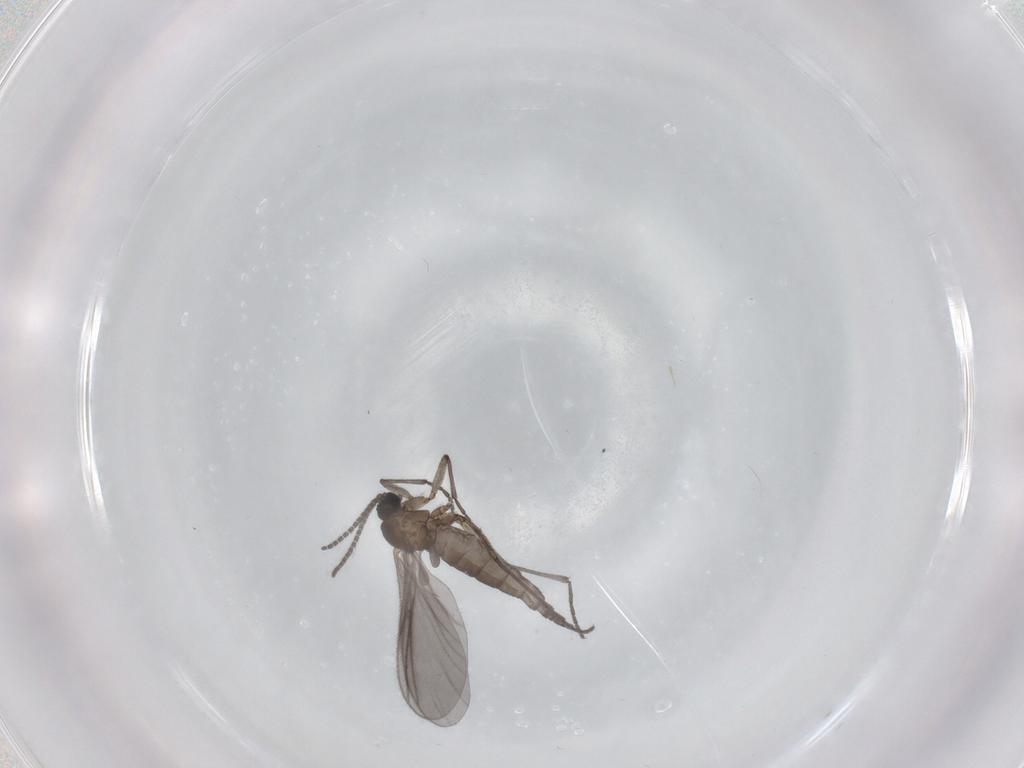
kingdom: Animalia
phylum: Arthropoda
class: Insecta
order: Diptera
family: Sciaridae
